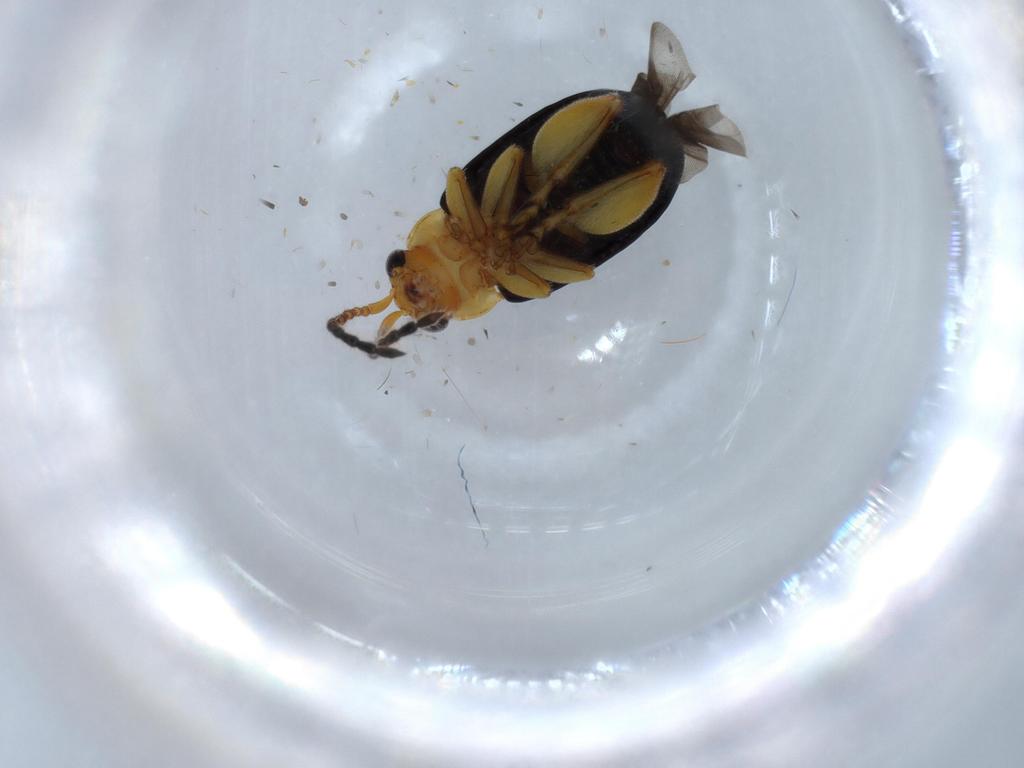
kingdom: Animalia
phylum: Arthropoda
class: Insecta
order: Coleoptera
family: Chrysomelidae
